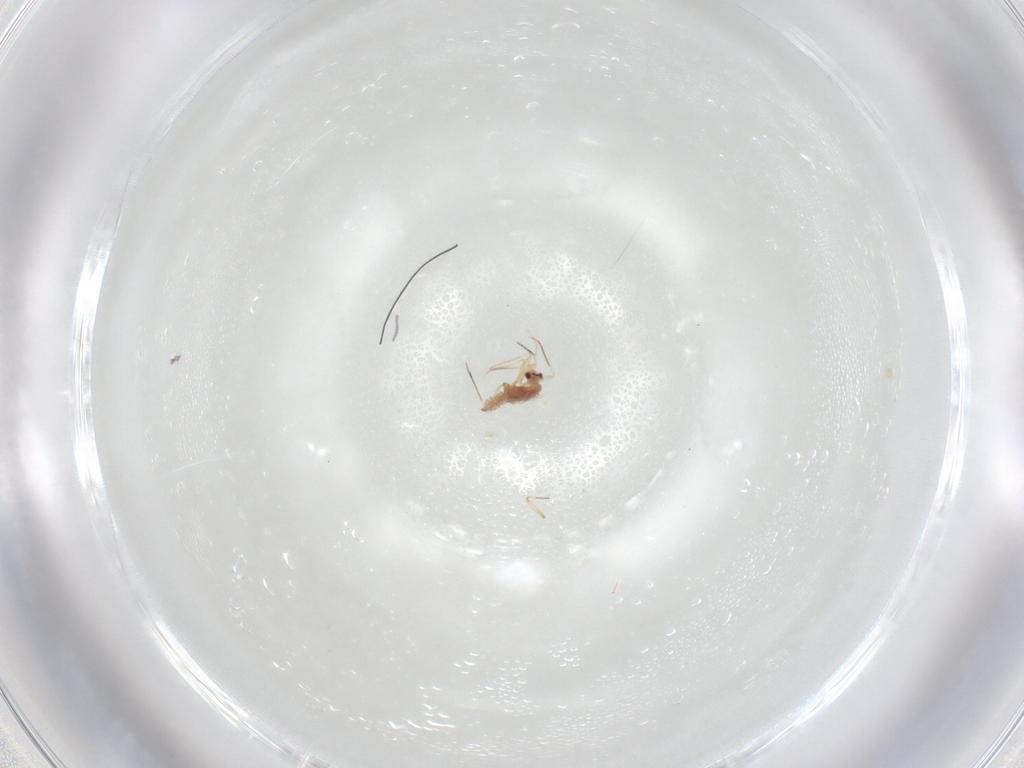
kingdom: Animalia
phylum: Arthropoda
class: Insecta
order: Hemiptera
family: Pseudococcidae
